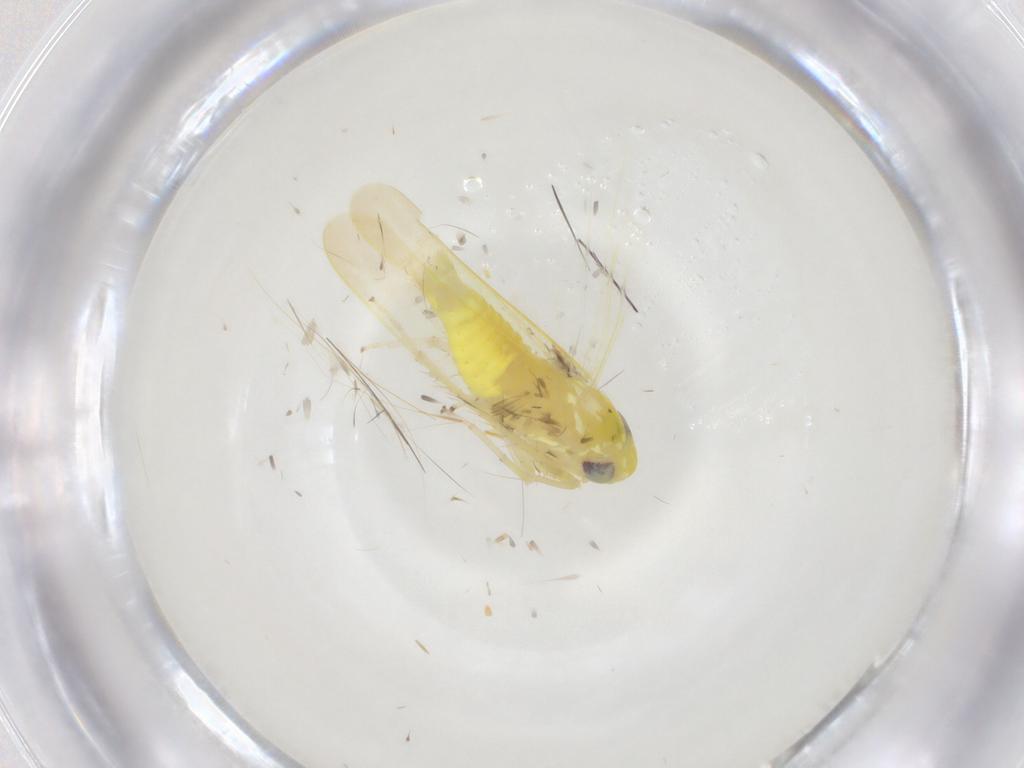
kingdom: Animalia
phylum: Arthropoda
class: Insecta
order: Hemiptera
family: Cicadellidae
